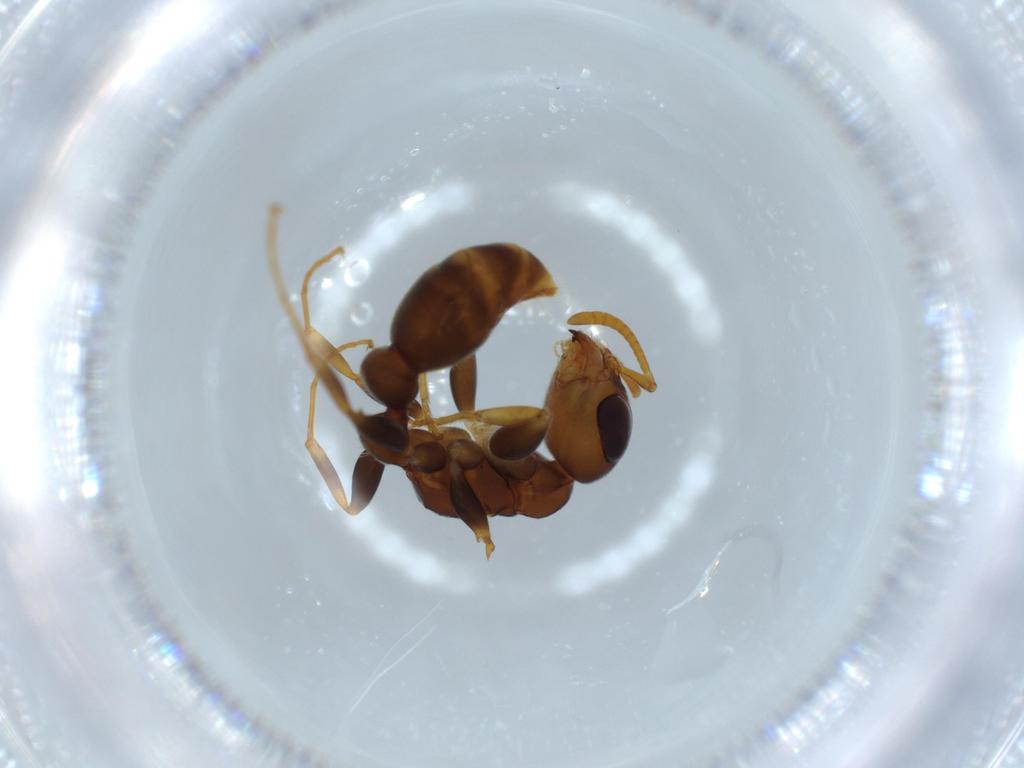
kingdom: Animalia
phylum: Arthropoda
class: Insecta
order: Hymenoptera
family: Formicidae
